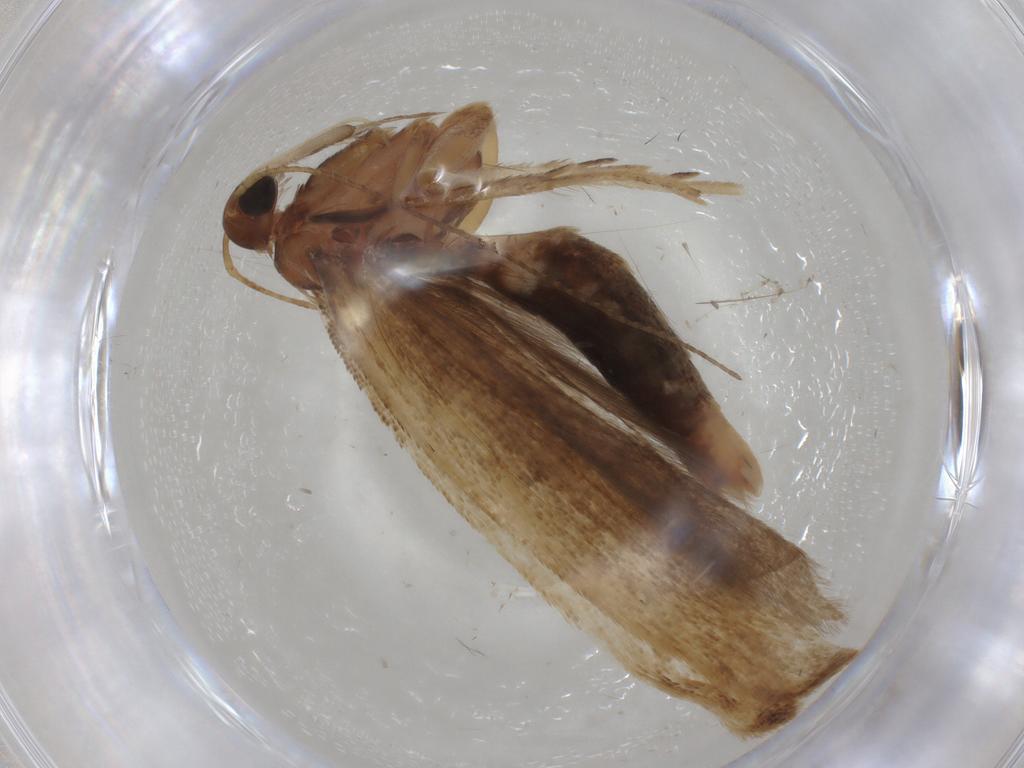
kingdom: Animalia
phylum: Arthropoda
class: Insecta
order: Lepidoptera
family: Gelechiidae
